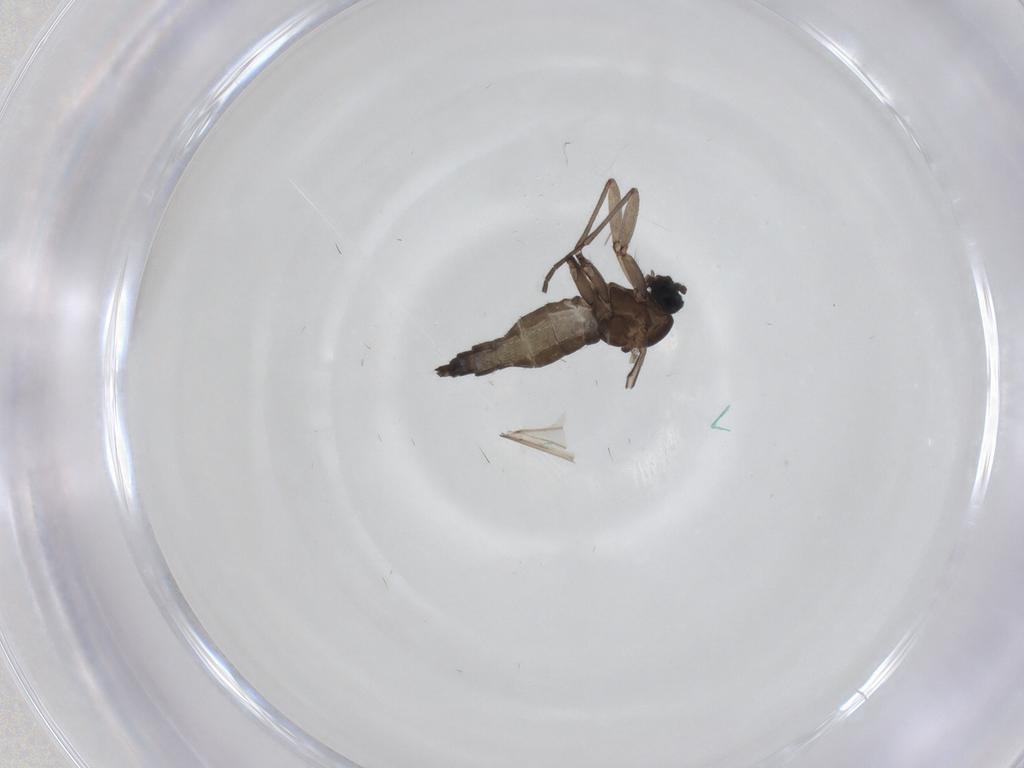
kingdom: Animalia
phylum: Arthropoda
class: Insecta
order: Diptera
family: Sciaridae
